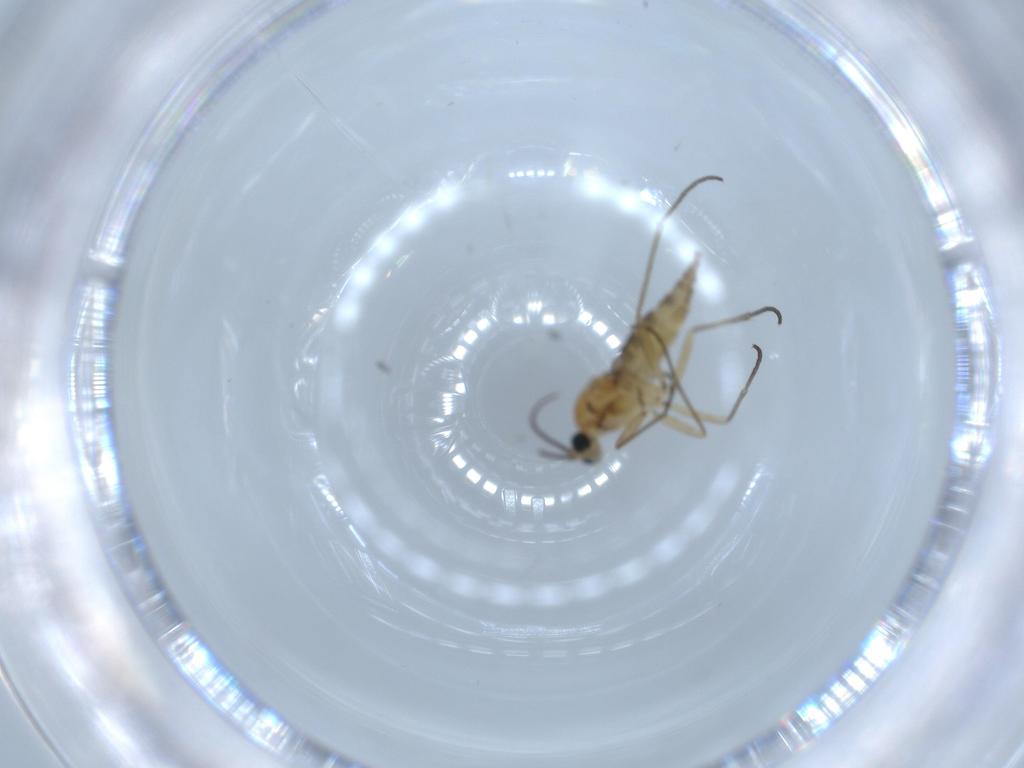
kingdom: Animalia
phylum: Arthropoda
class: Insecta
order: Diptera
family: Sciaridae
